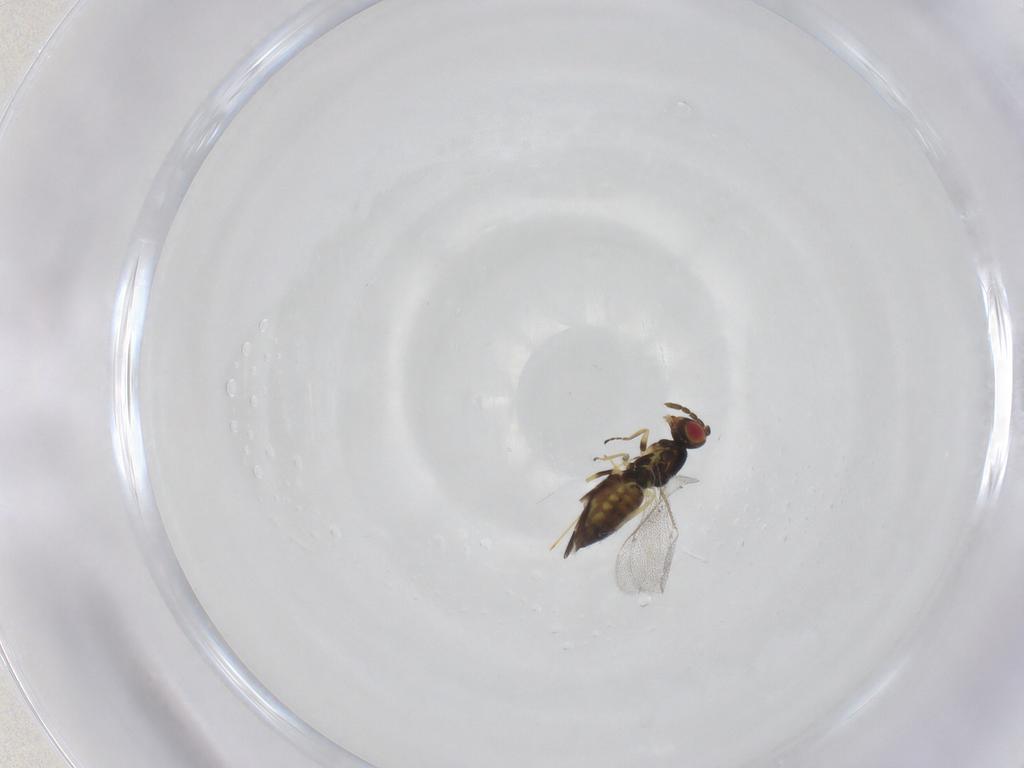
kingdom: Animalia
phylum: Arthropoda
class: Insecta
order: Hymenoptera
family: Eulophidae
